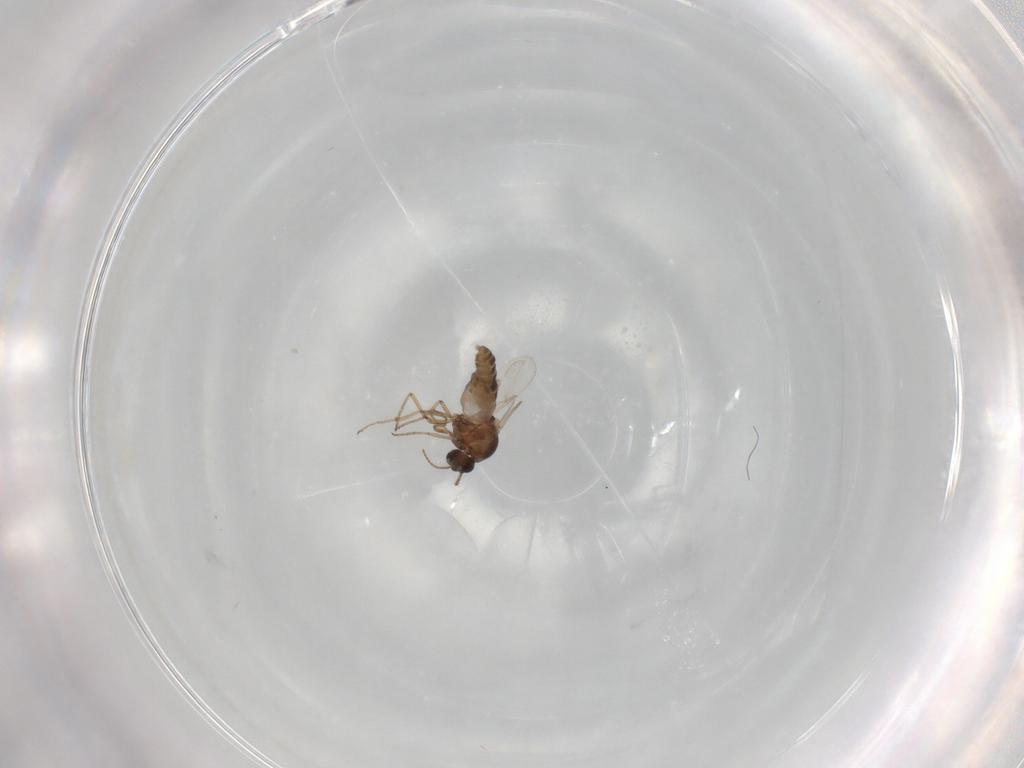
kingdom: Animalia
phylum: Arthropoda
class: Insecta
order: Diptera
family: Ceratopogonidae
